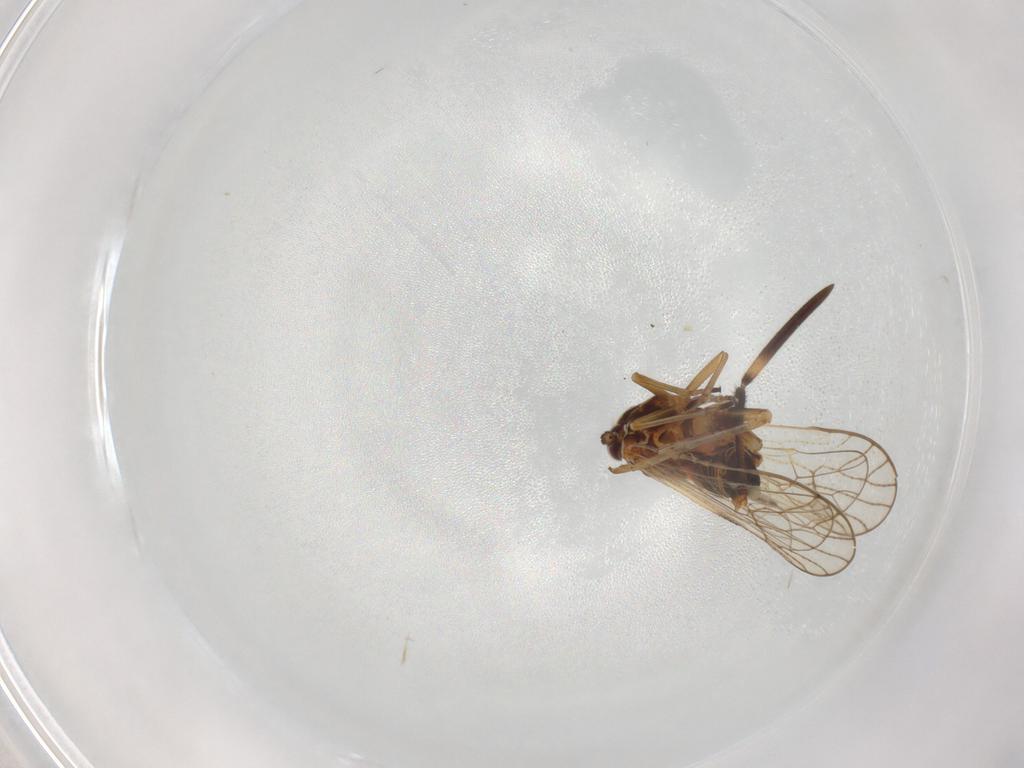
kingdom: Animalia
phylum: Arthropoda
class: Insecta
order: Hemiptera
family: Rhyparochromidae
